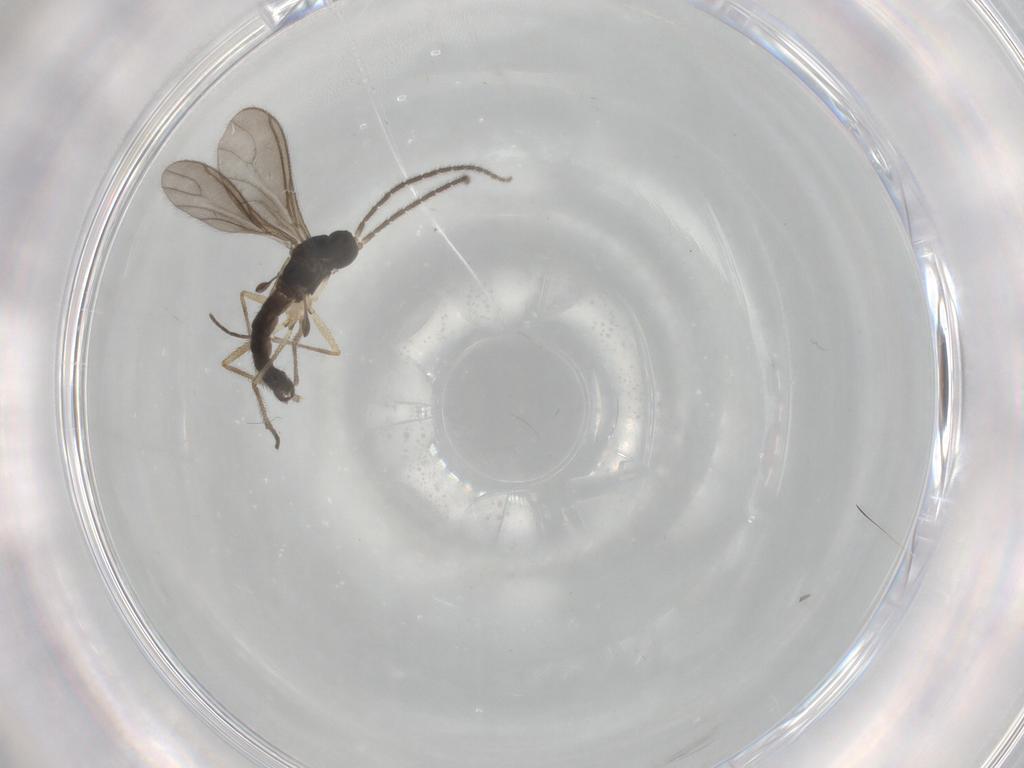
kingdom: Animalia
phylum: Arthropoda
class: Insecta
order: Diptera
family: Sciaridae
